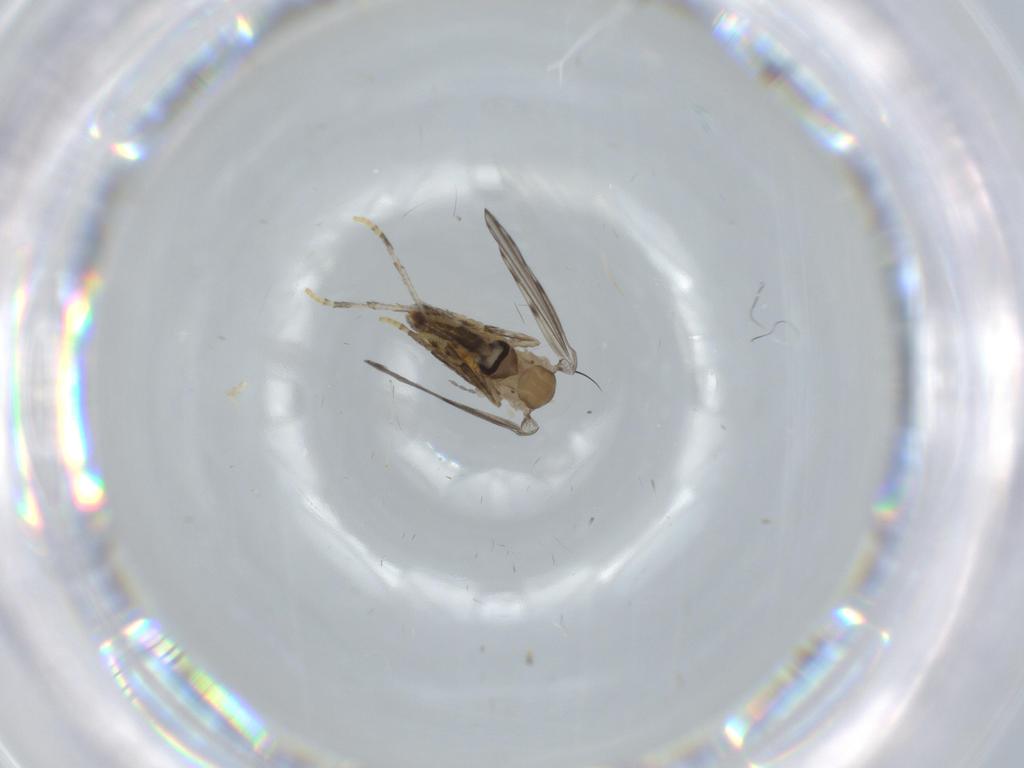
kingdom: Animalia
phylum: Arthropoda
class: Insecta
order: Diptera
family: Psychodidae
